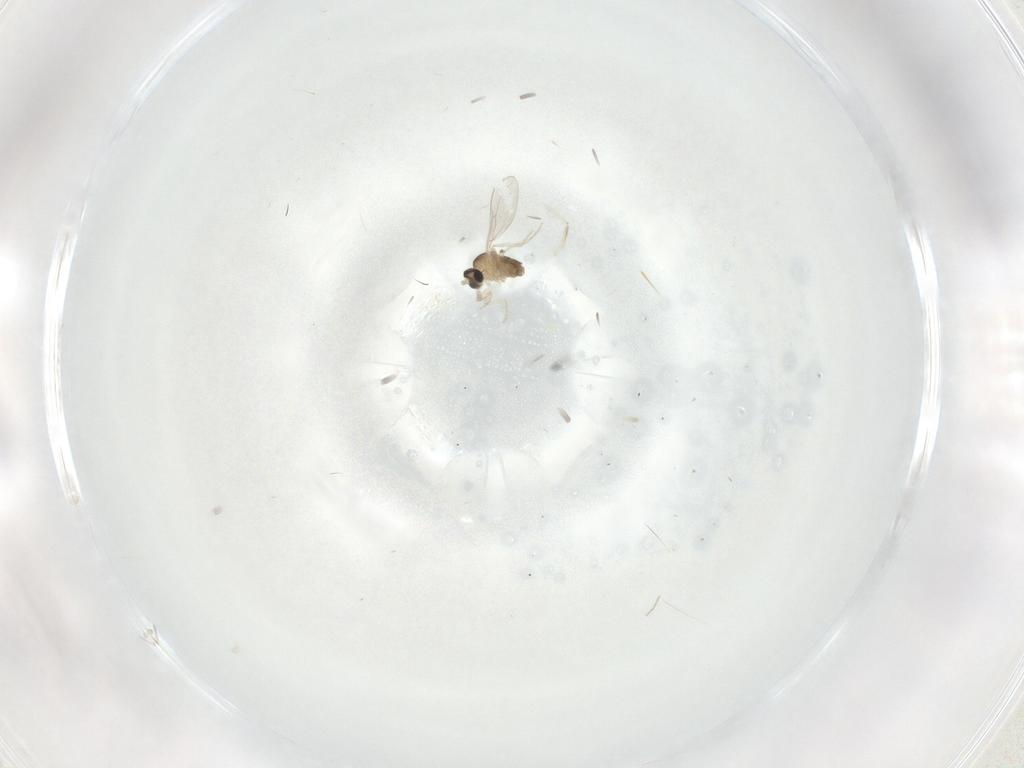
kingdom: Animalia
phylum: Arthropoda
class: Insecta
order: Diptera
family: Cecidomyiidae
